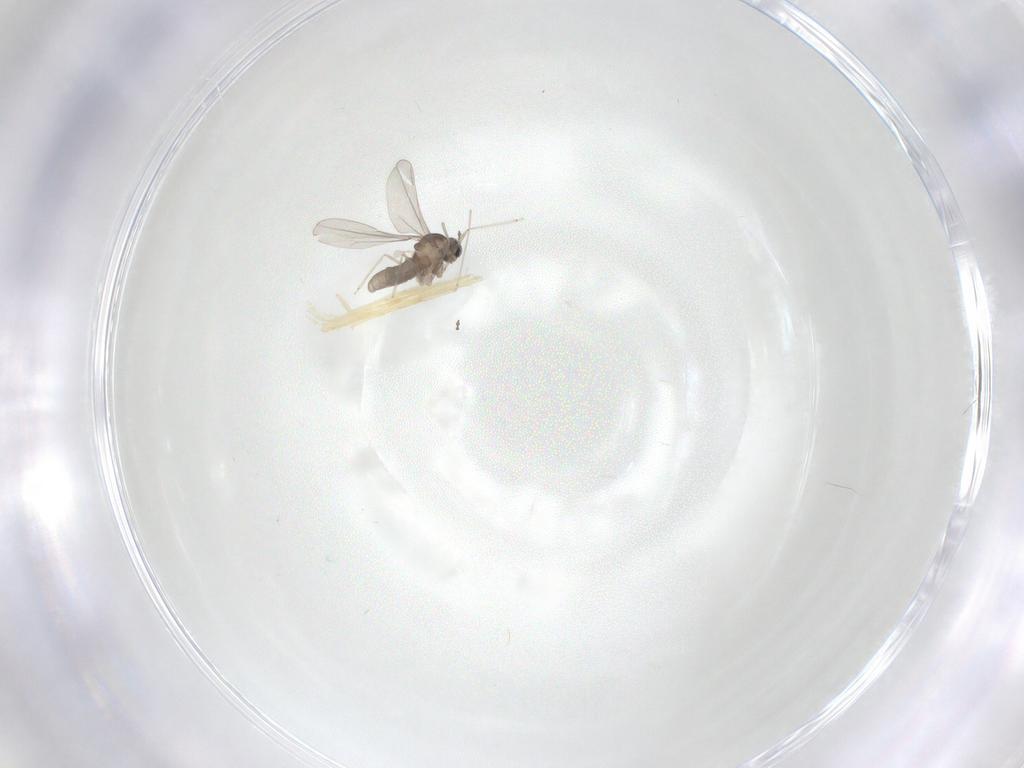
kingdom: Animalia
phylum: Arthropoda
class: Insecta
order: Diptera
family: Cecidomyiidae
